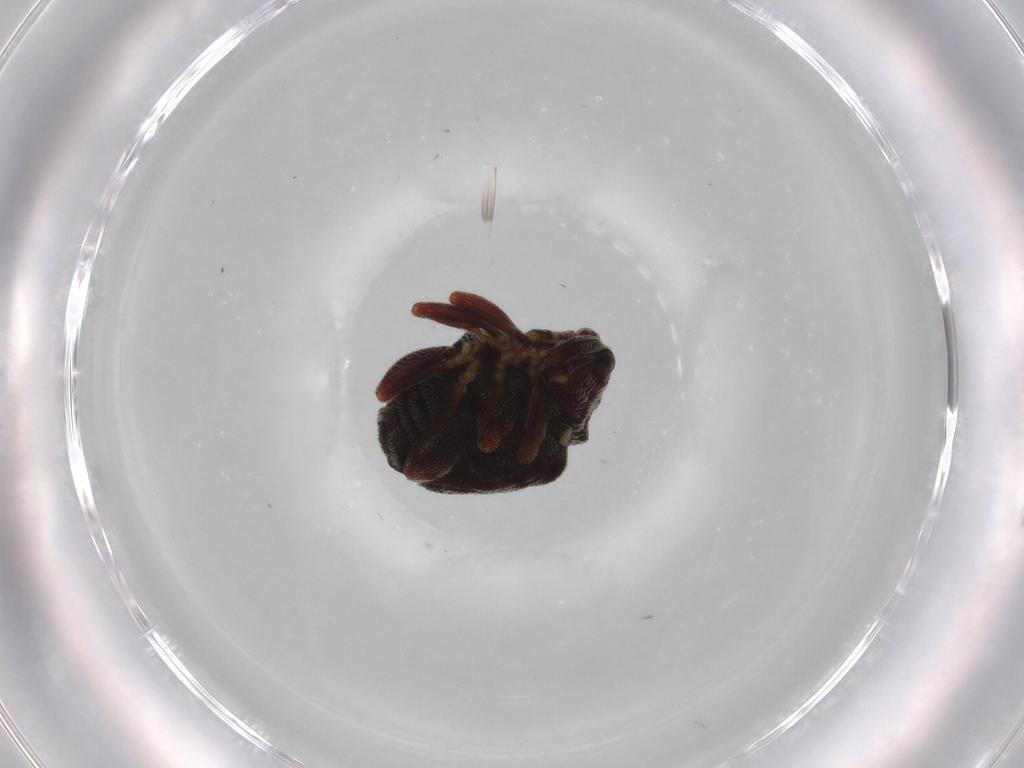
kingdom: Animalia
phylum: Arthropoda
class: Insecta
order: Coleoptera
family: Curculionidae
